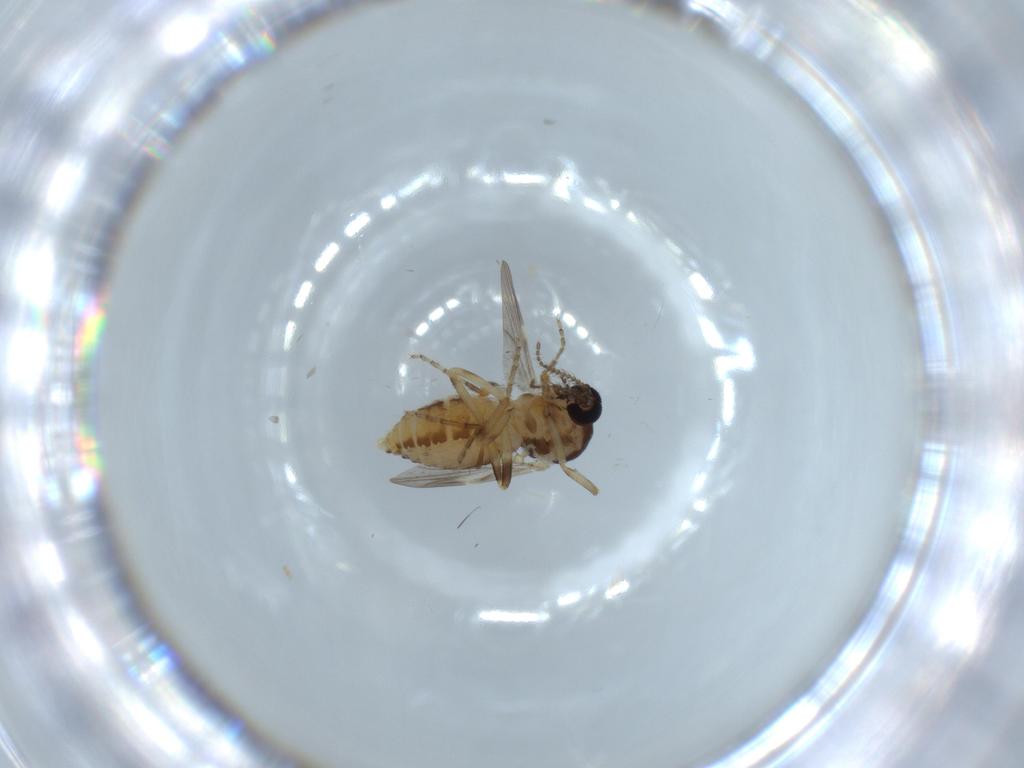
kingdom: Animalia
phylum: Arthropoda
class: Insecta
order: Diptera
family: Ceratopogonidae
